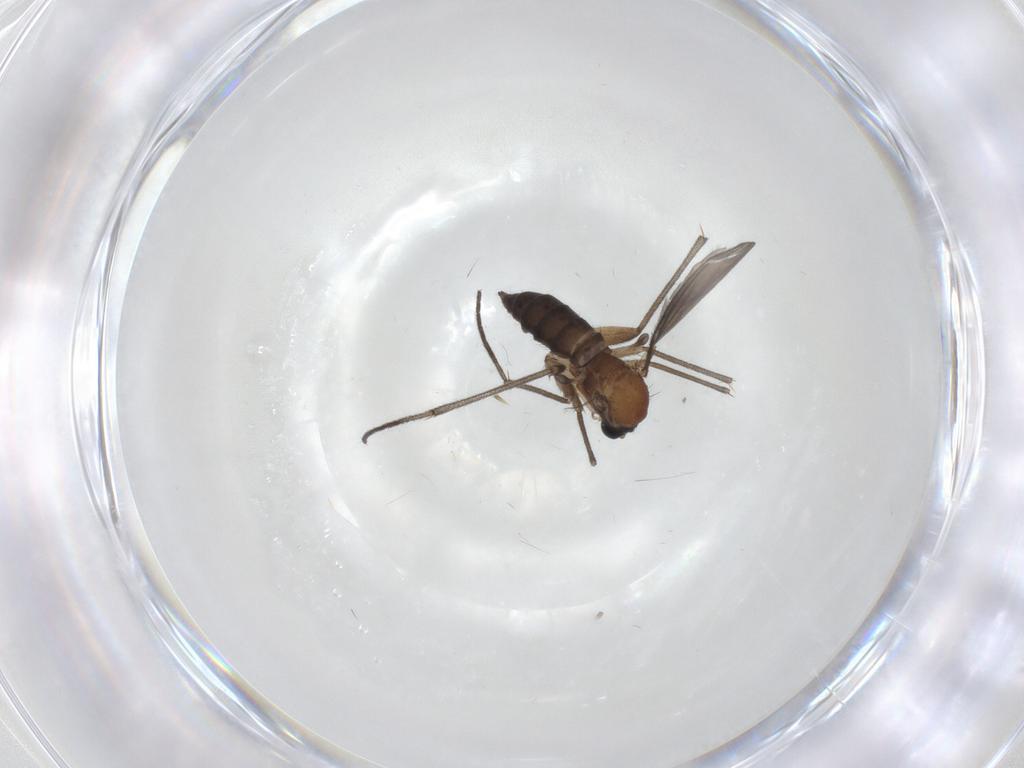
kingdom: Animalia
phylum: Arthropoda
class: Insecta
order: Diptera
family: Sciaridae
